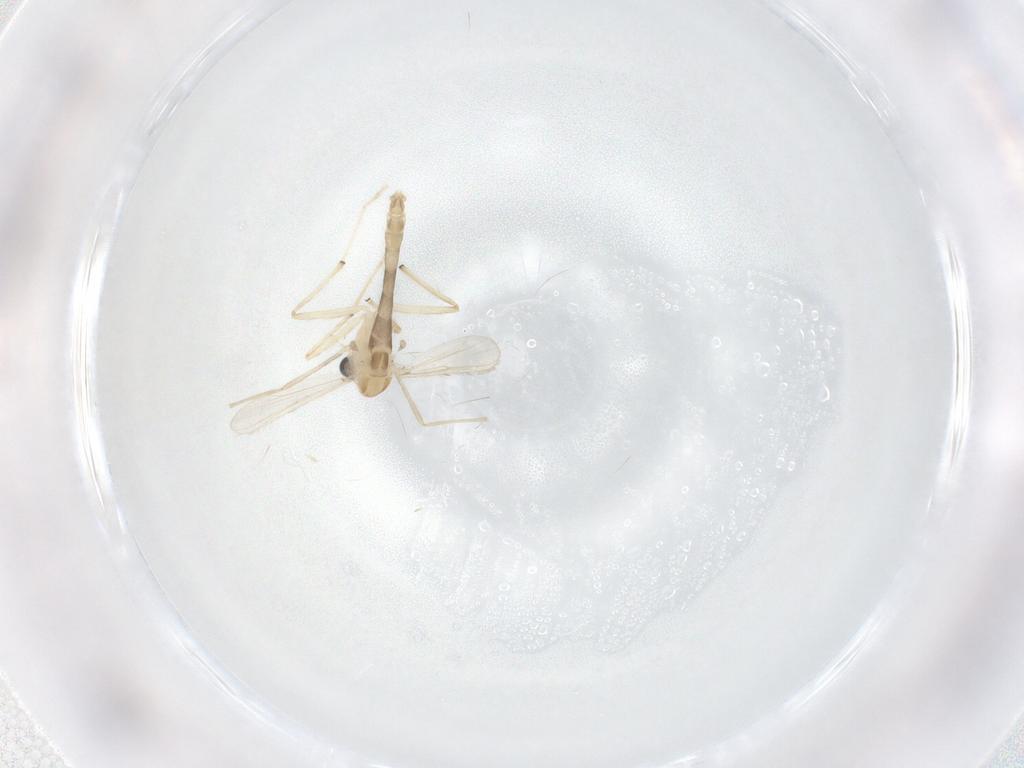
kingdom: Animalia
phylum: Arthropoda
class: Insecta
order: Diptera
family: Chironomidae
